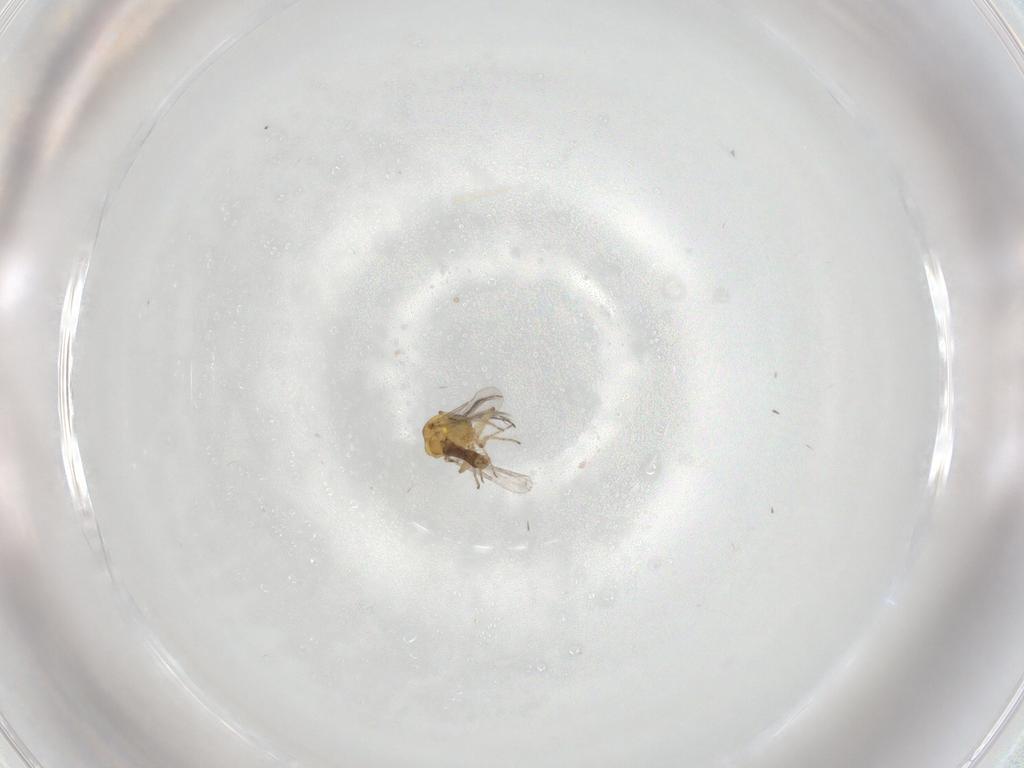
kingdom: Animalia
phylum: Arthropoda
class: Insecta
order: Diptera
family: Ceratopogonidae
